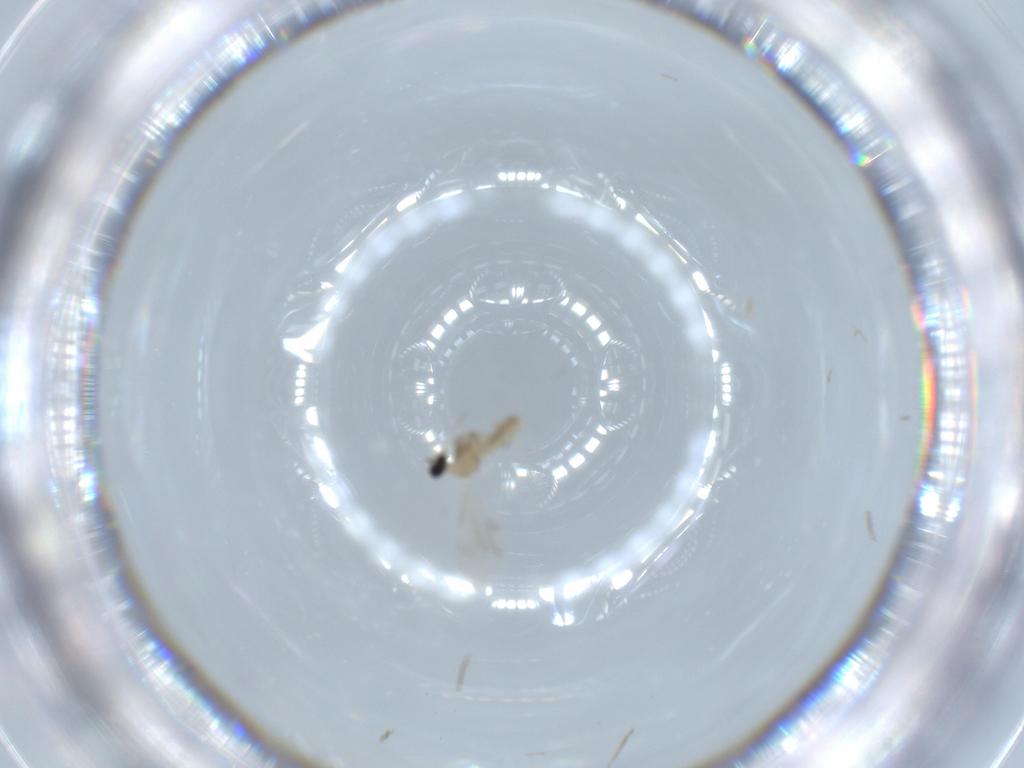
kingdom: Animalia
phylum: Arthropoda
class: Insecta
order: Diptera
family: Cecidomyiidae
